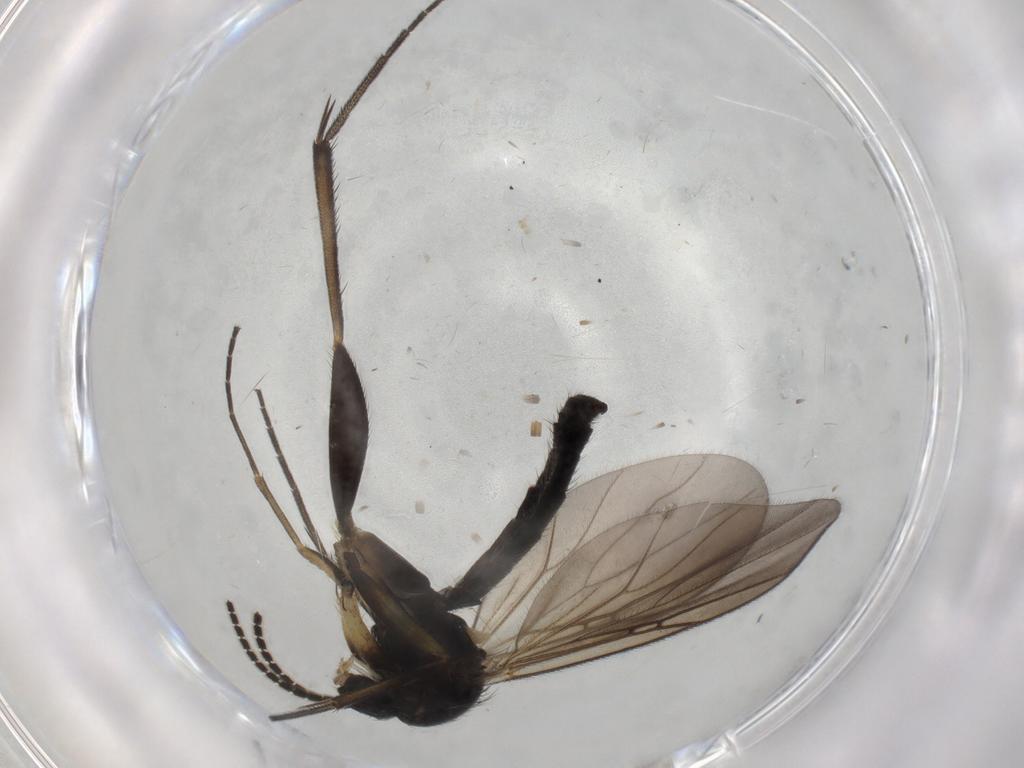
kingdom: Animalia
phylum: Arthropoda
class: Insecta
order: Diptera
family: Mycetophilidae
